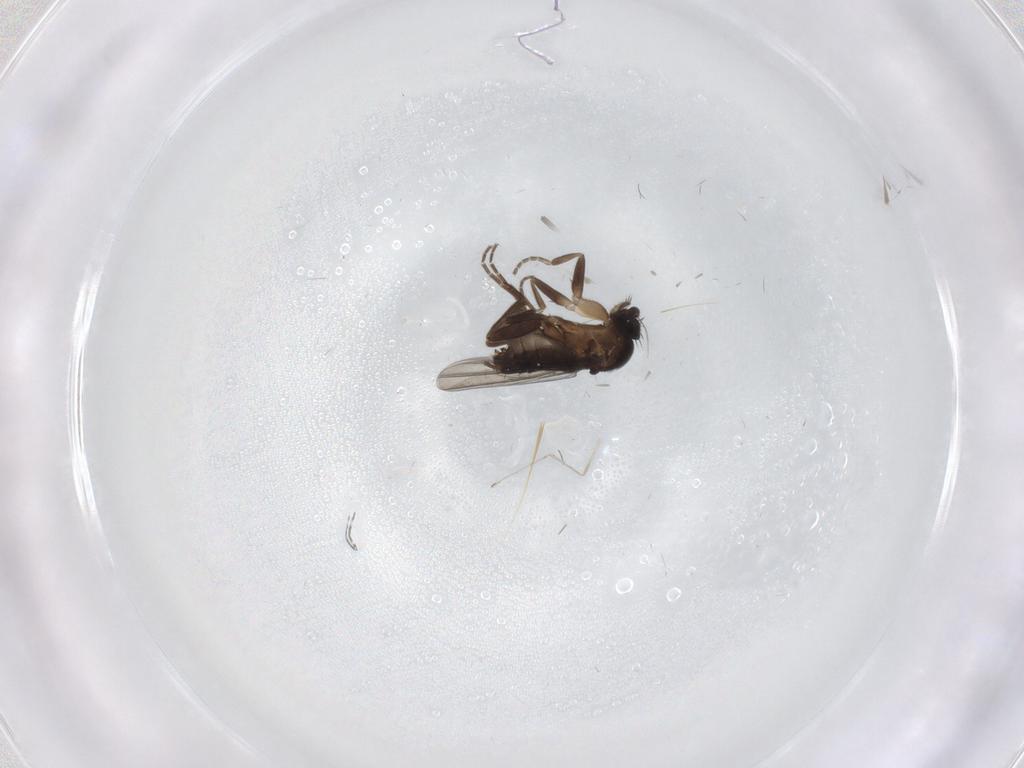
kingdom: Animalia
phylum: Arthropoda
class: Insecta
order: Diptera
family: Phoridae
